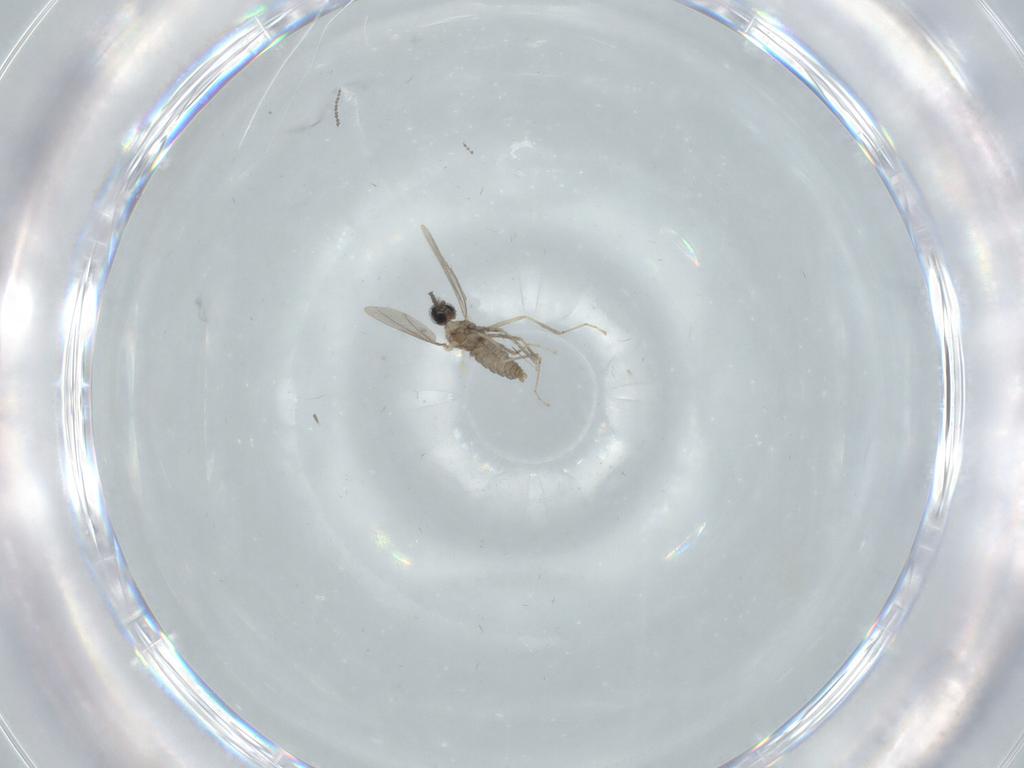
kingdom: Animalia
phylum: Arthropoda
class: Insecta
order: Diptera
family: Cecidomyiidae
